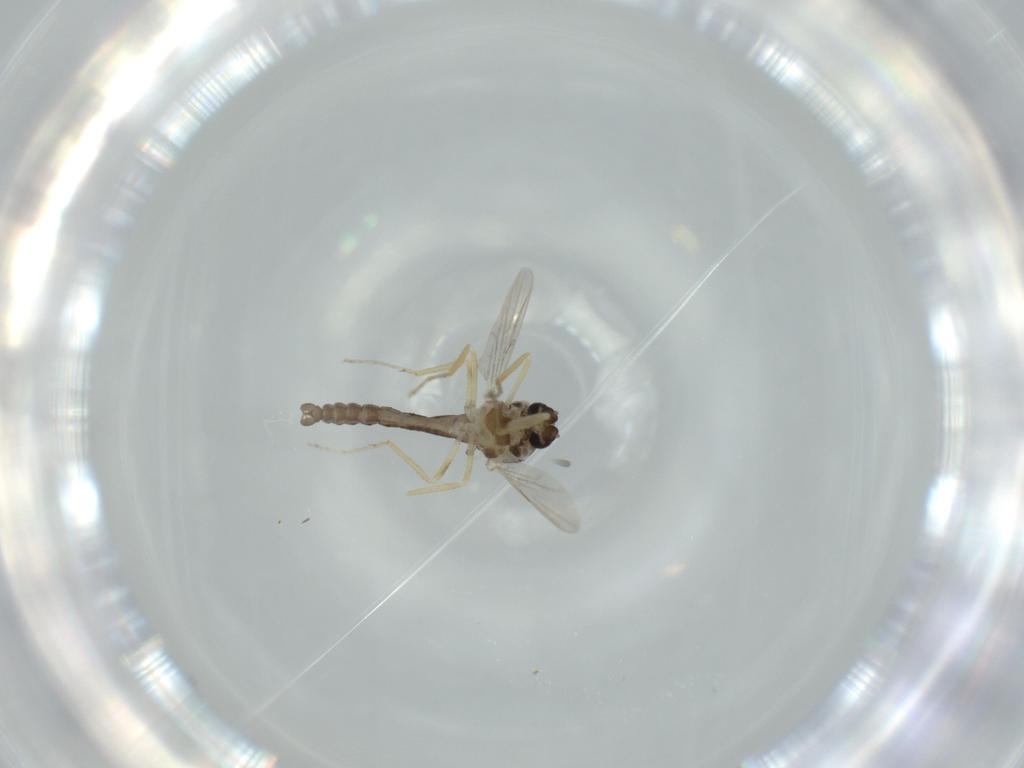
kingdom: Animalia
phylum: Arthropoda
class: Insecta
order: Diptera
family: Ceratopogonidae
